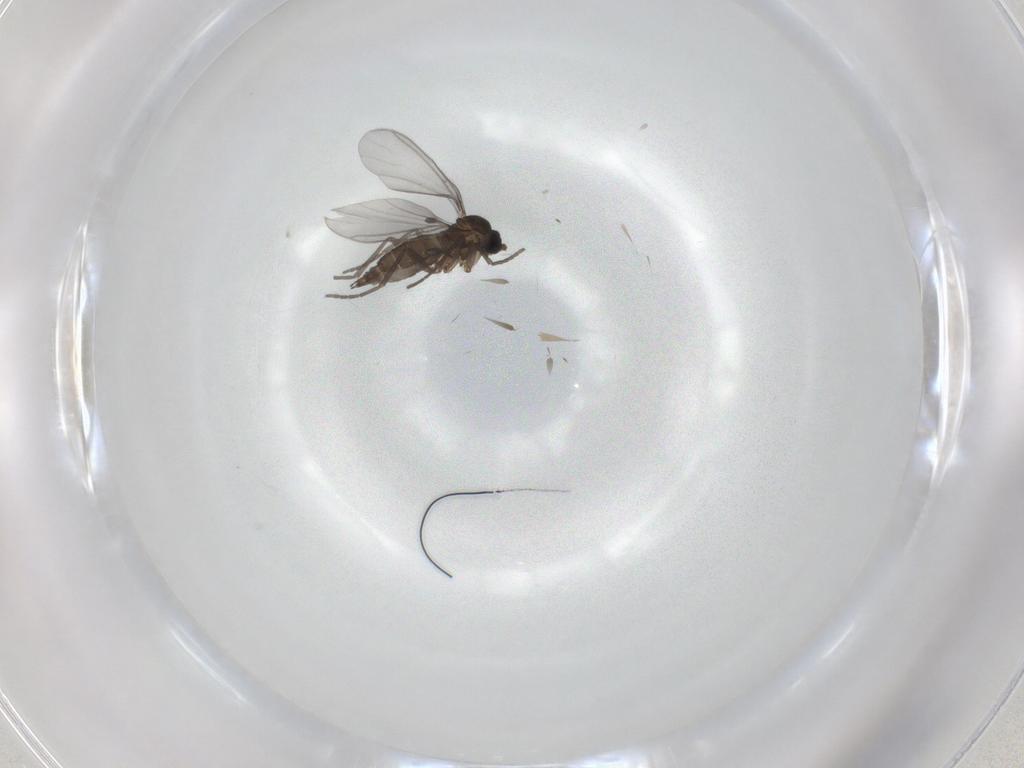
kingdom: Animalia
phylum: Arthropoda
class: Insecta
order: Diptera
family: Sciaridae
